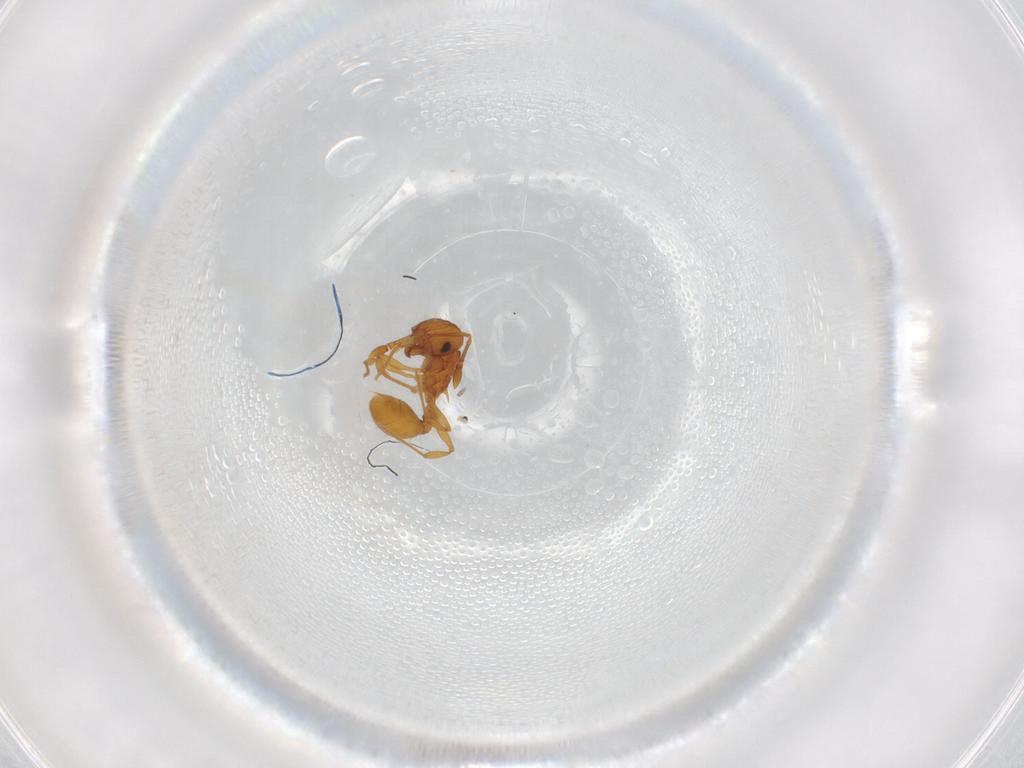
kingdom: Animalia
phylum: Arthropoda
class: Insecta
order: Hymenoptera
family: Formicidae
